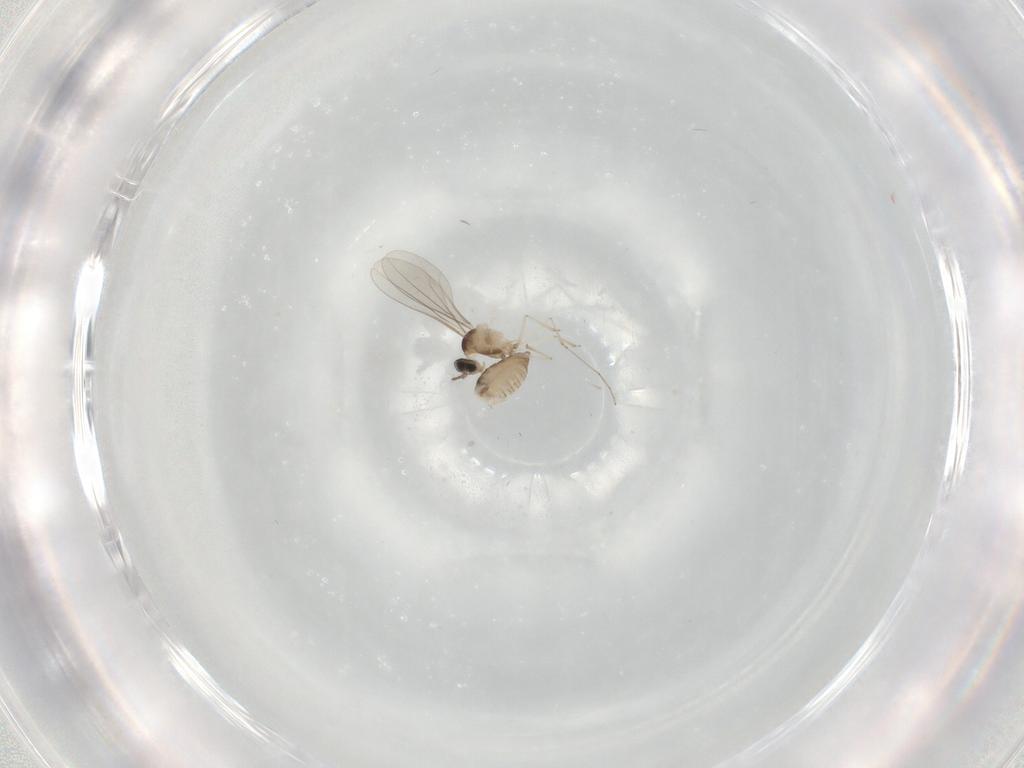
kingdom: Animalia
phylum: Arthropoda
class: Insecta
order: Diptera
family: Cecidomyiidae
